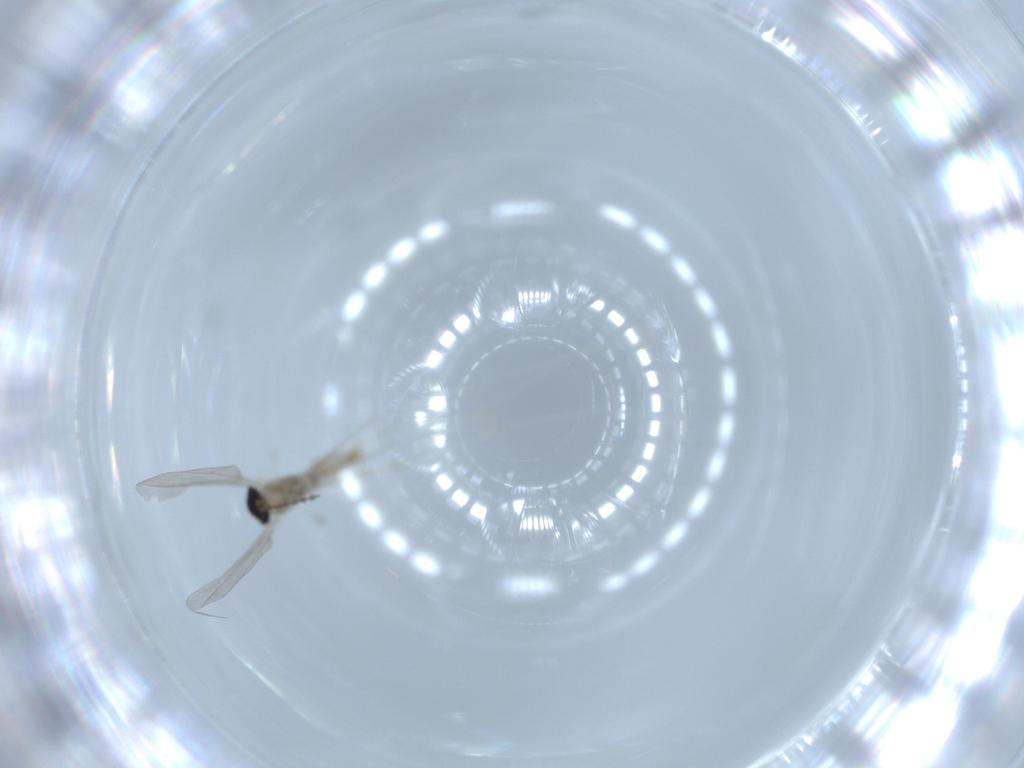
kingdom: Animalia
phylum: Arthropoda
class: Insecta
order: Diptera
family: Cecidomyiidae
